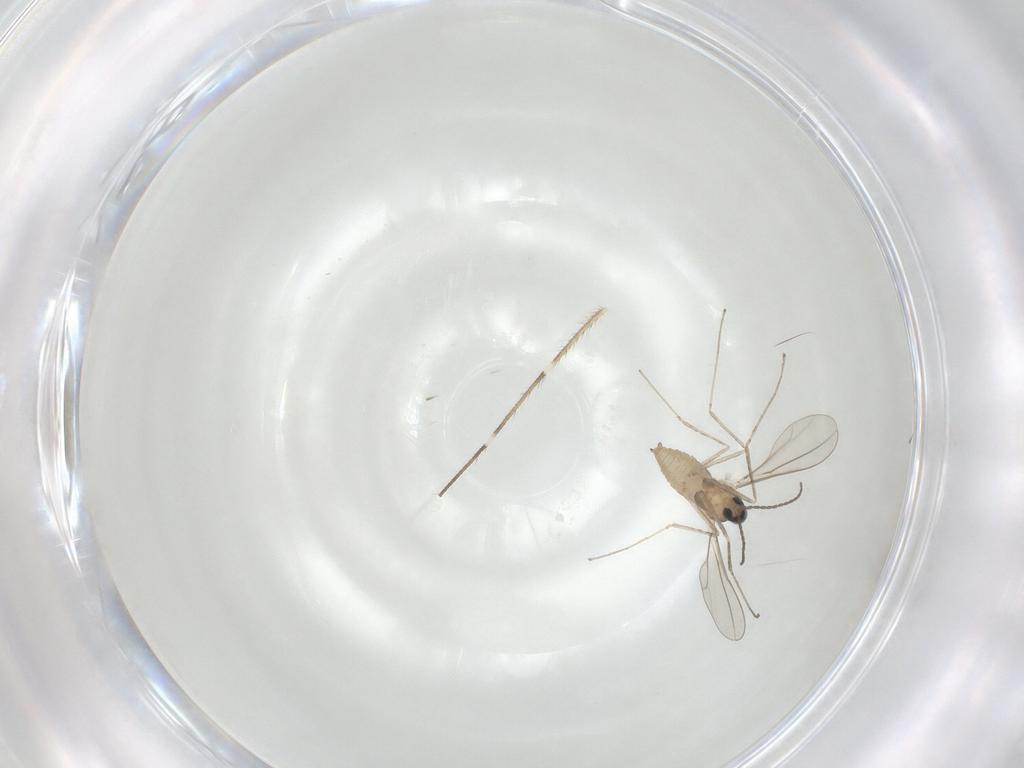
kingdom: Animalia
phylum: Arthropoda
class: Insecta
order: Diptera
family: Cecidomyiidae
